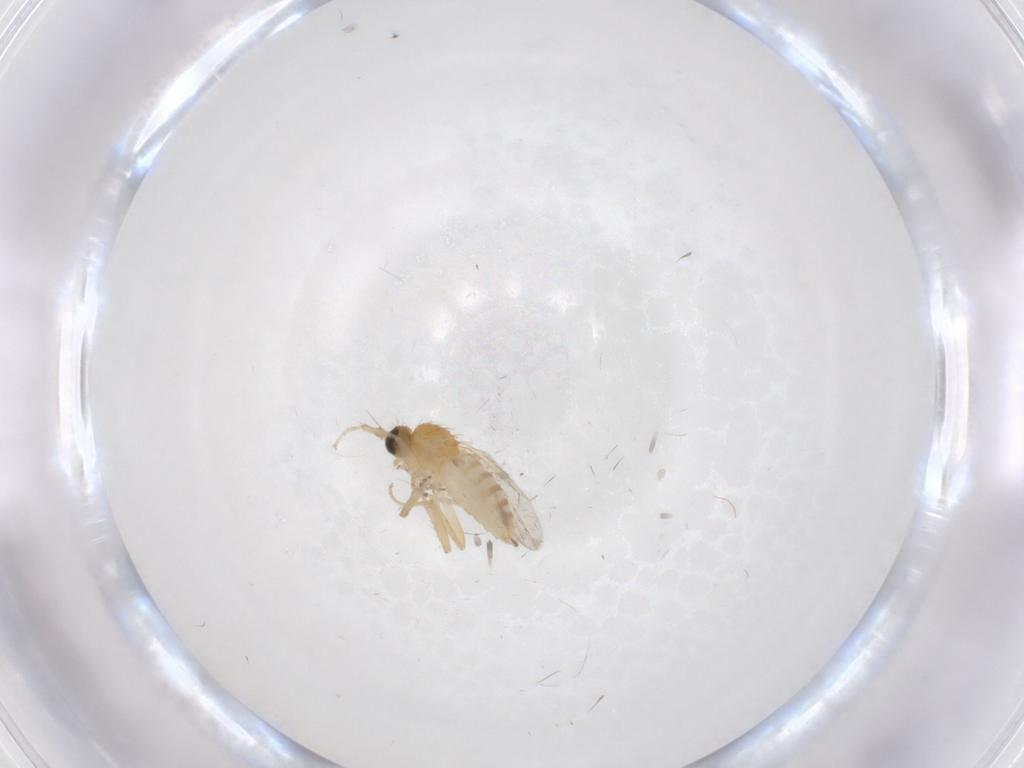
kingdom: Animalia
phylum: Arthropoda
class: Insecta
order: Diptera
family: Hybotidae
